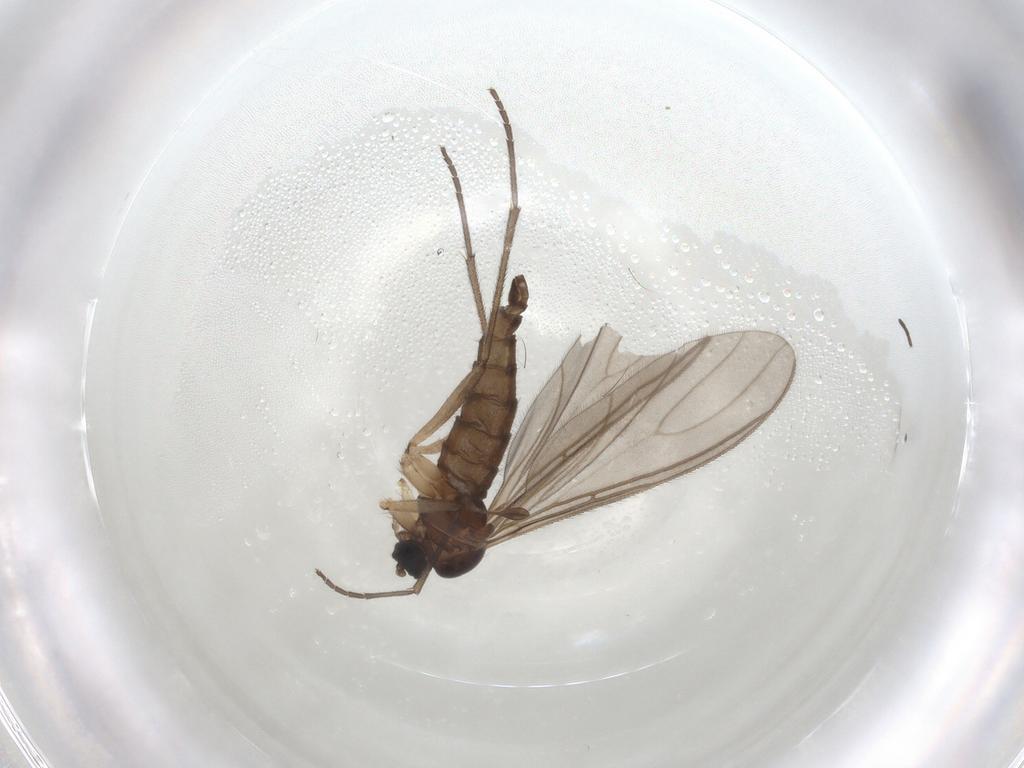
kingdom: Animalia
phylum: Arthropoda
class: Insecta
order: Diptera
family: Sciaridae
